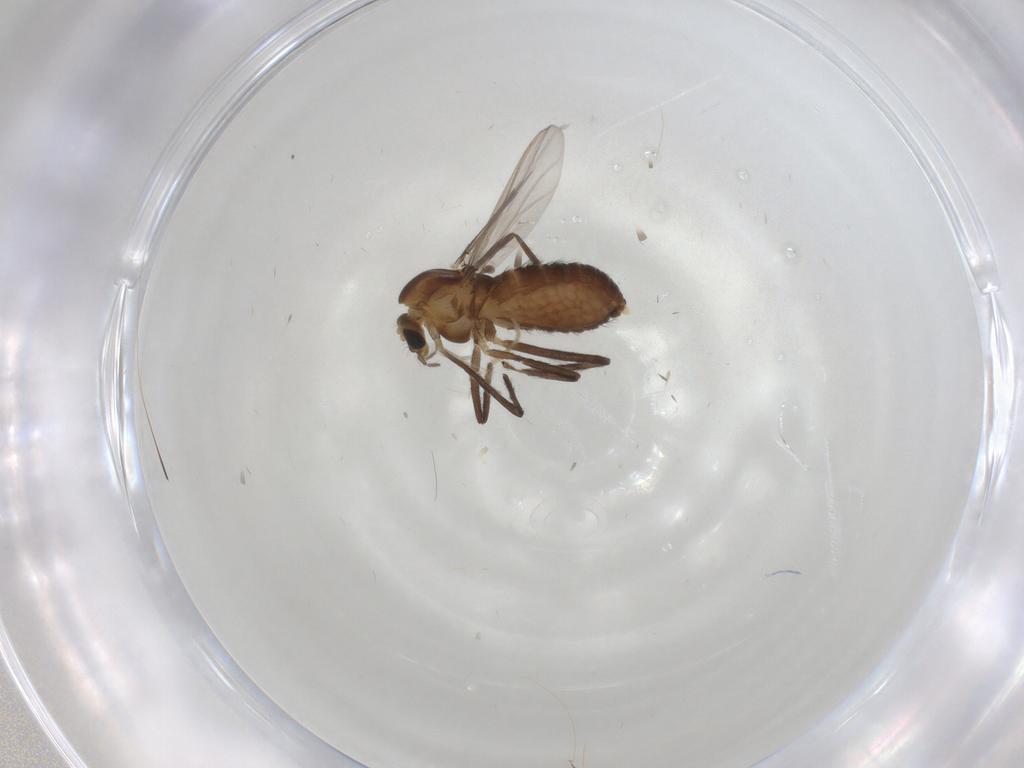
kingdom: Animalia
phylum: Arthropoda
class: Insecta
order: Diptera
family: Chironomidae
